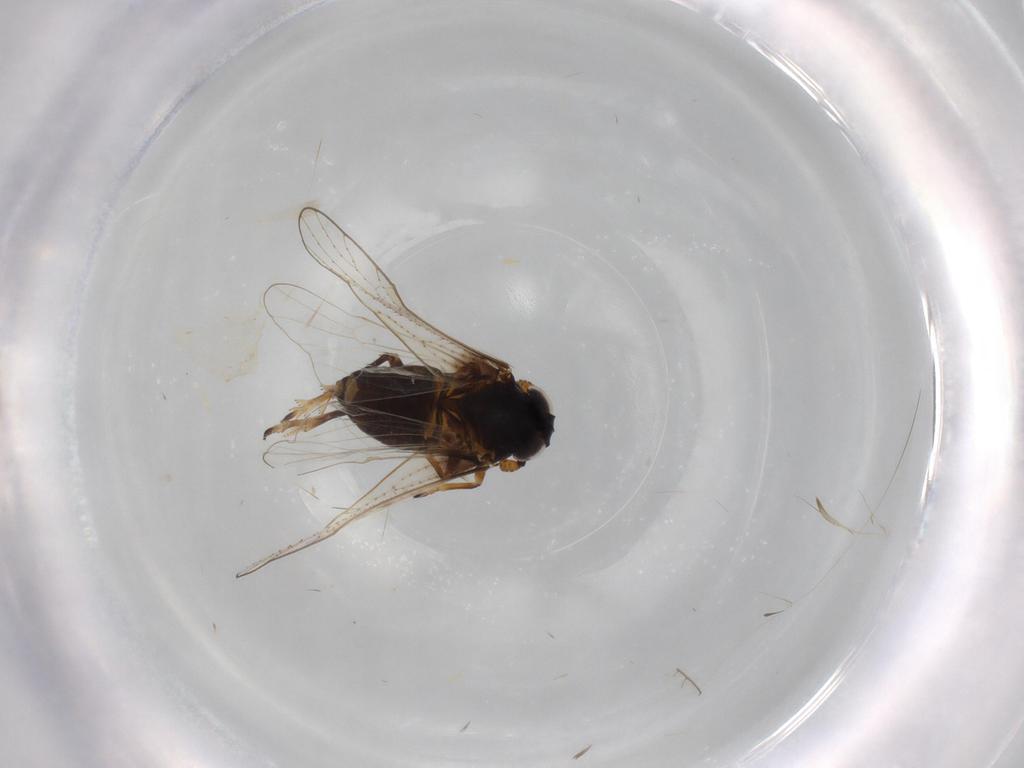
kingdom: Animalia
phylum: Arthropoda
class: Insecta
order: Hemiptera
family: Delphacidae
